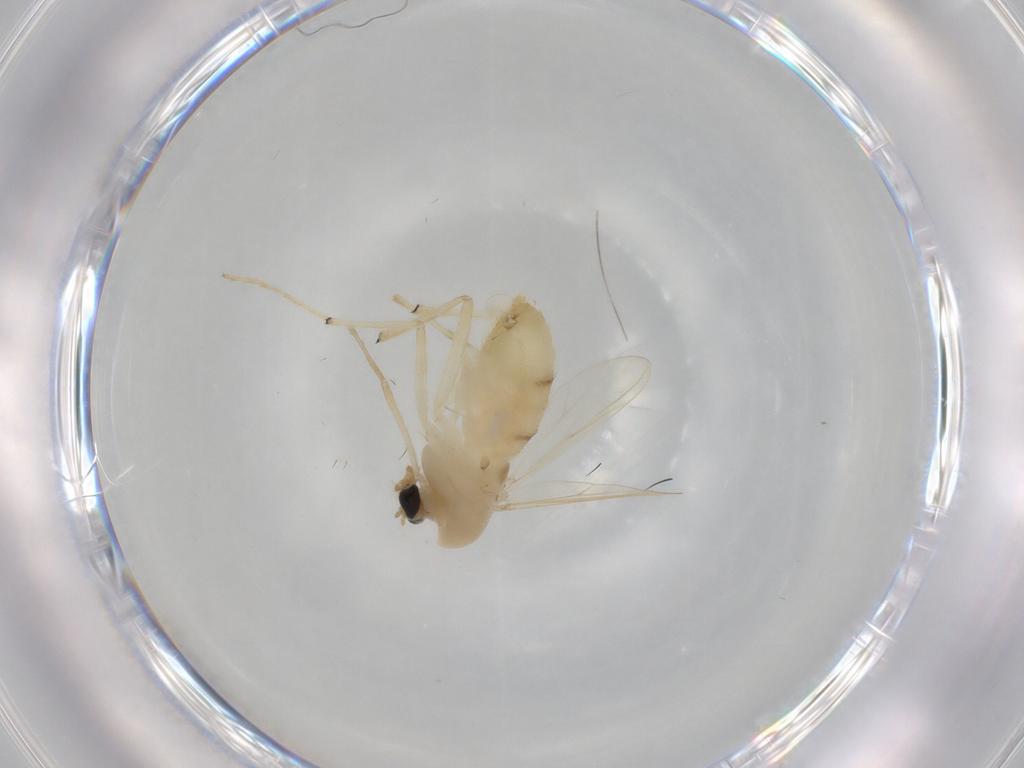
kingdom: Animalia
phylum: Arthropoda
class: Insecta
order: Diptera
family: Chironomidae
